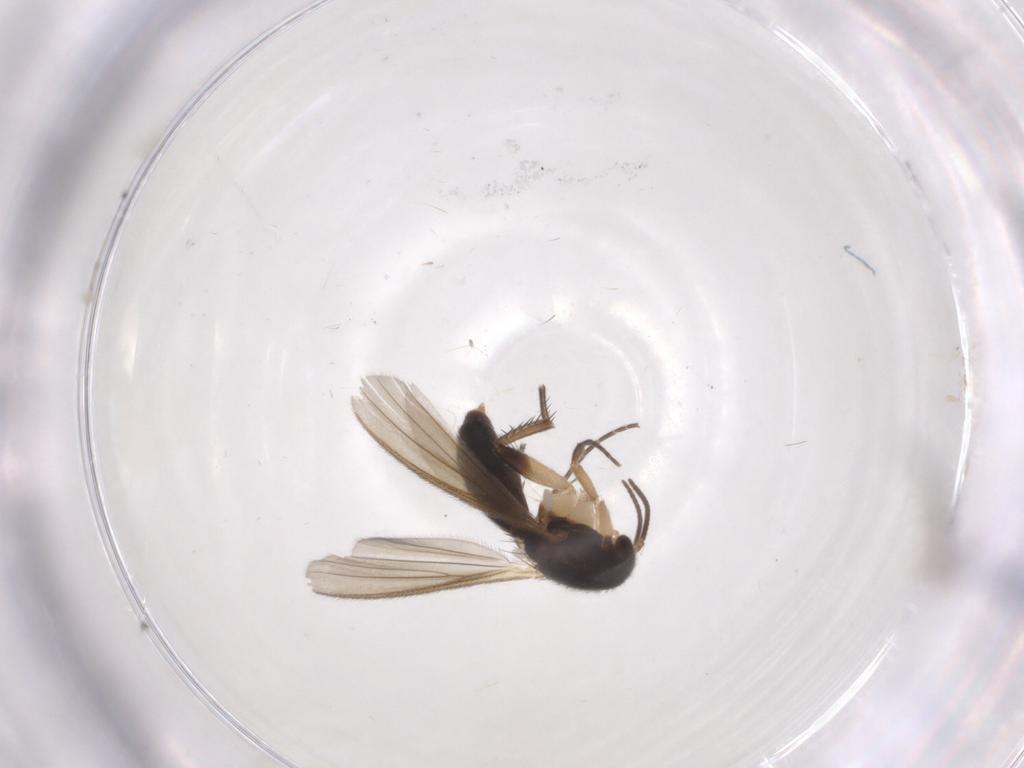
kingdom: Animalia
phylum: Arthropoda
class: Insecta
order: Diptera
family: Mycetophilidae
